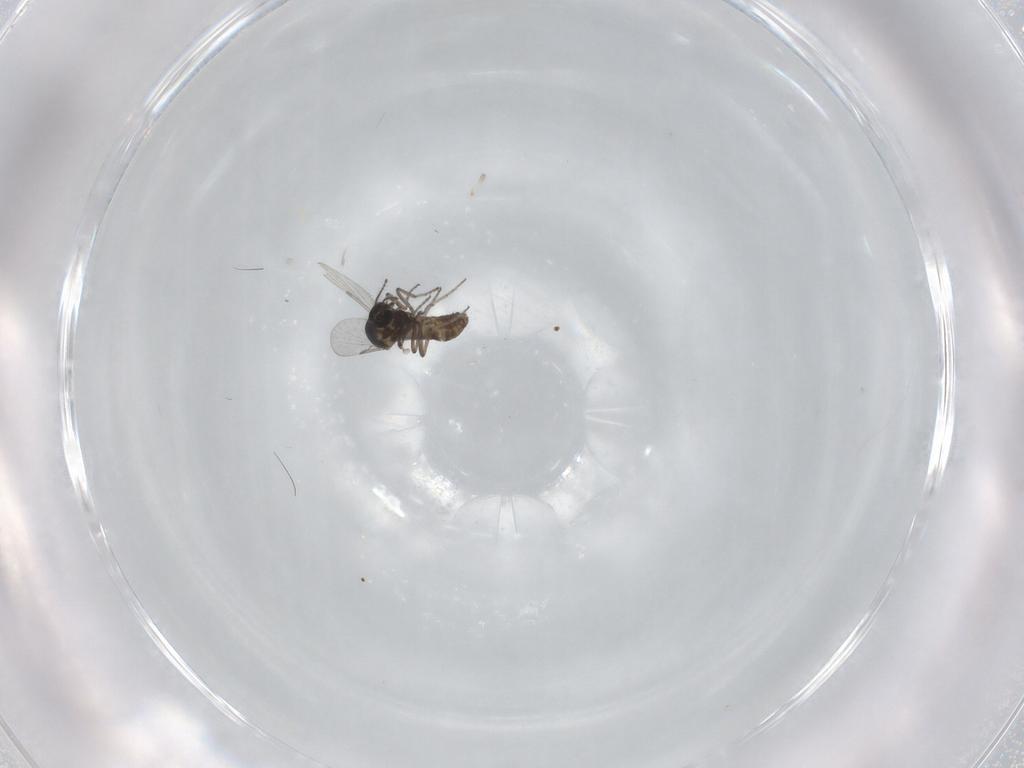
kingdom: Animalia
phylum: Arthropoda
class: Insecta
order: Diptera
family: Ceratopogonidae
